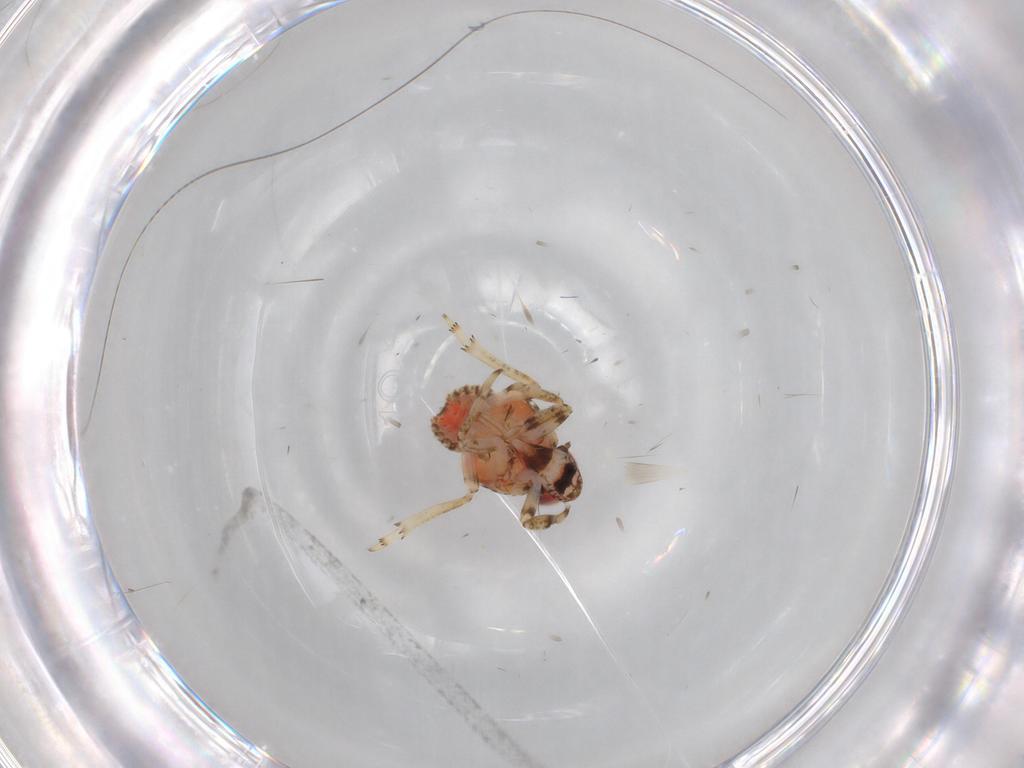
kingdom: Animalia
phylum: Arthropoda
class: Insecta
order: Hemiptera
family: Issidae
